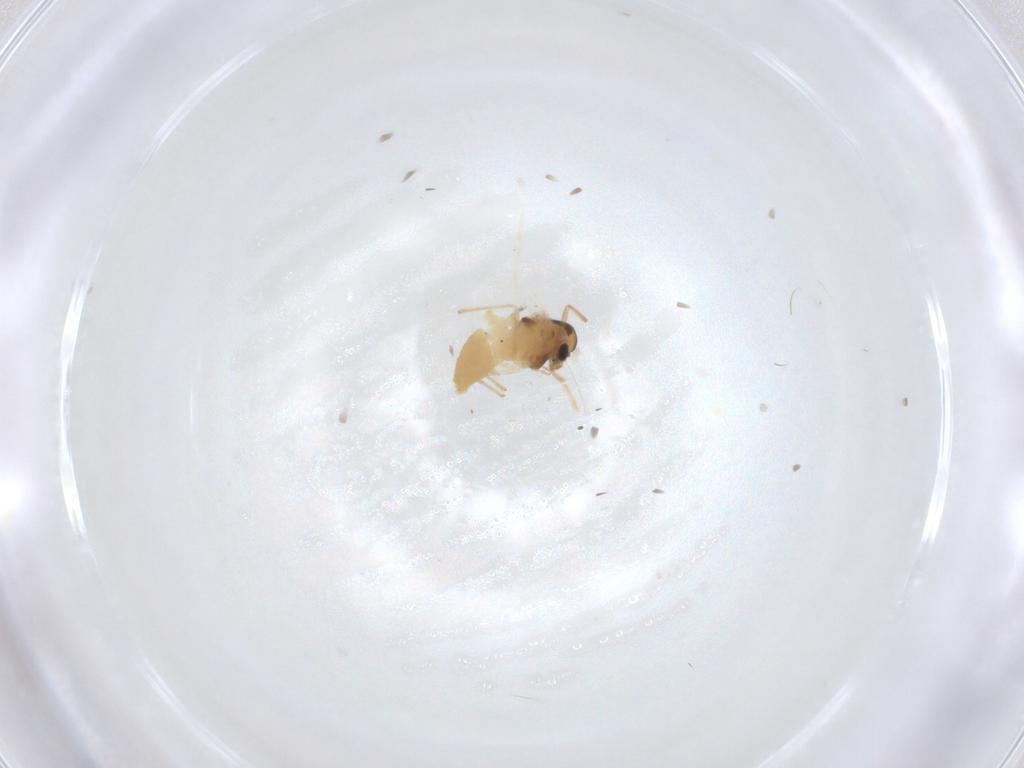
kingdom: Animalia
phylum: Arthropoda
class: Insecta
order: Diptera
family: Chironomidae
